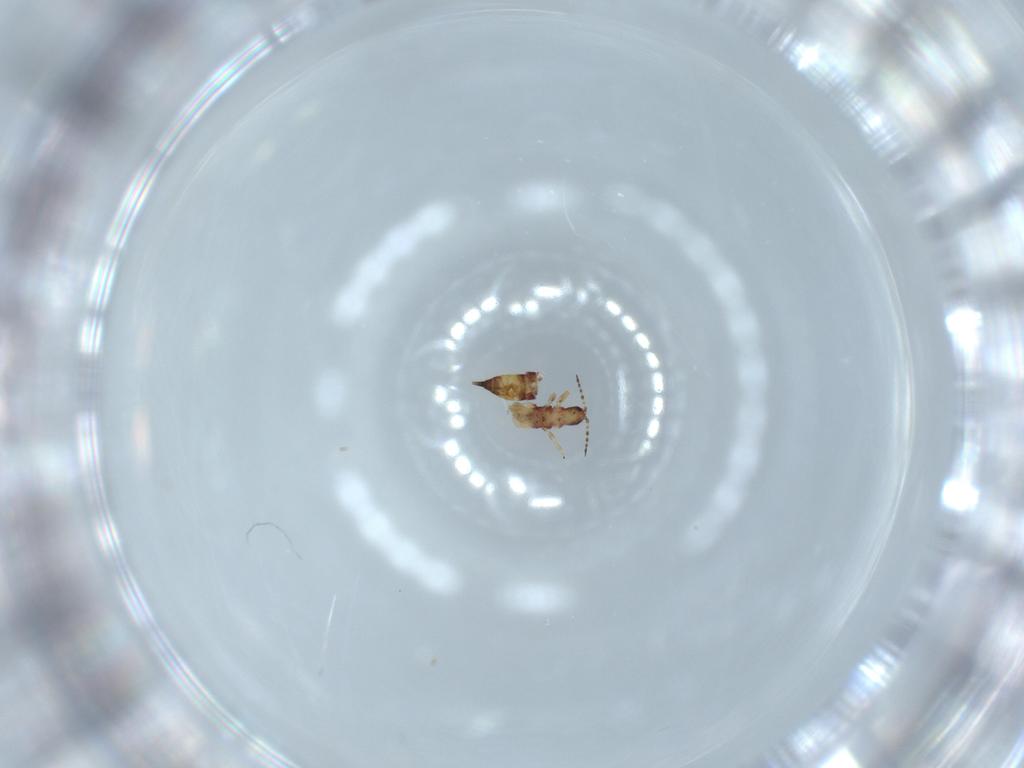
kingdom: Animalia
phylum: Arthropoda
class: Insecta
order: Thysanoptera
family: Phlaeothripidae
